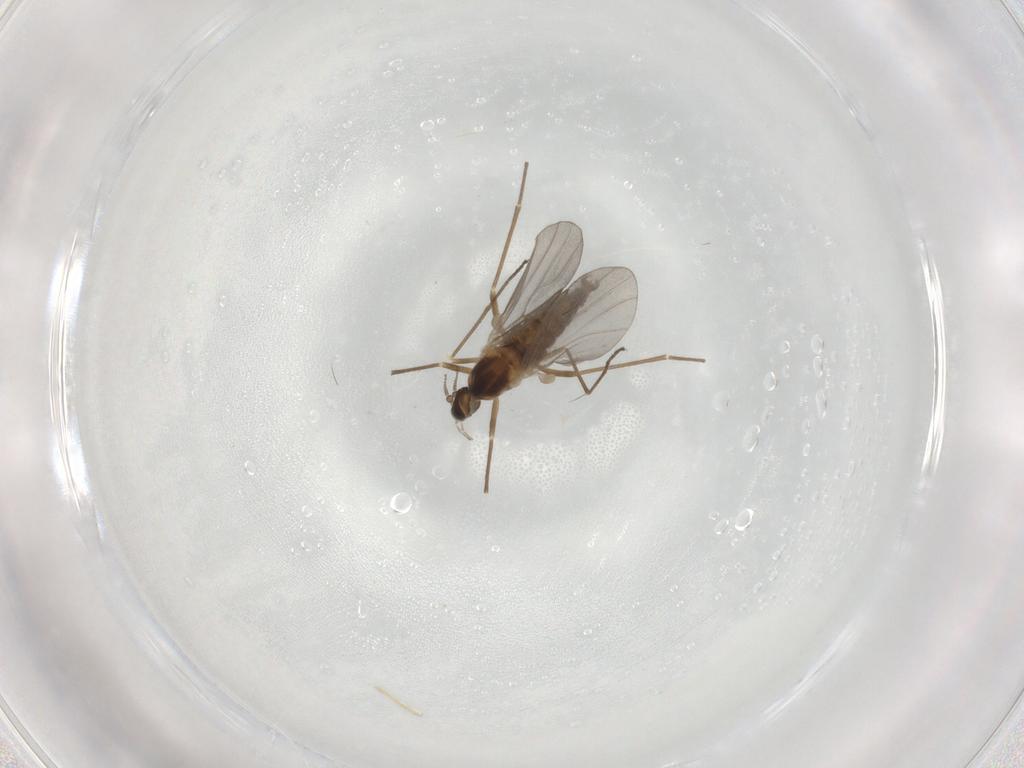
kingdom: Animalia
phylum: Arthropoda
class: Insecta
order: Diptera
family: Cecidomyiidae
